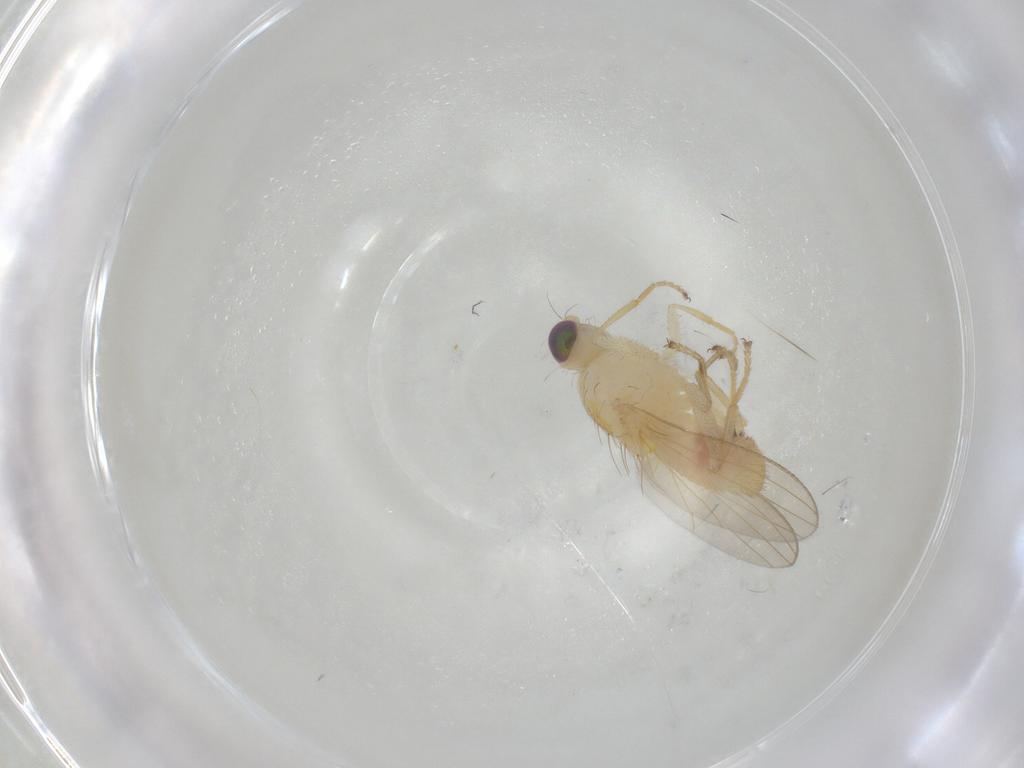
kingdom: Animalia
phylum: Arthropoda
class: Insecta
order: Diptera
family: Chyromyidae
